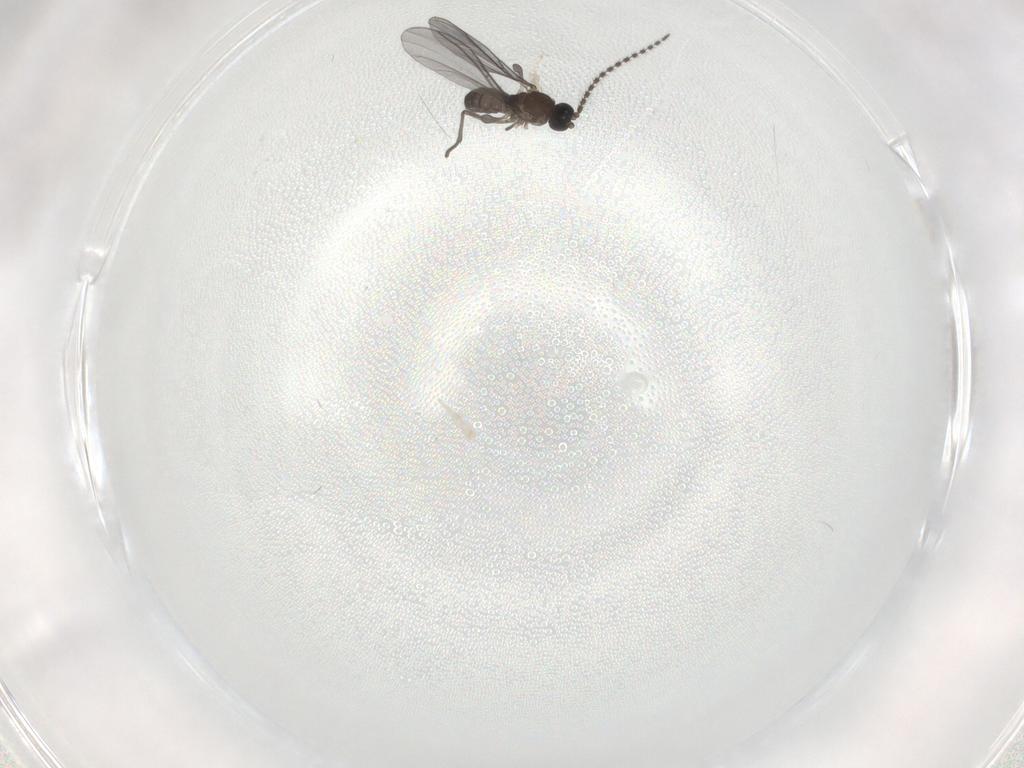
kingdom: Animalia
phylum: Arthropoda
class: Insecta
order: Diptera
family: Sciaridae
